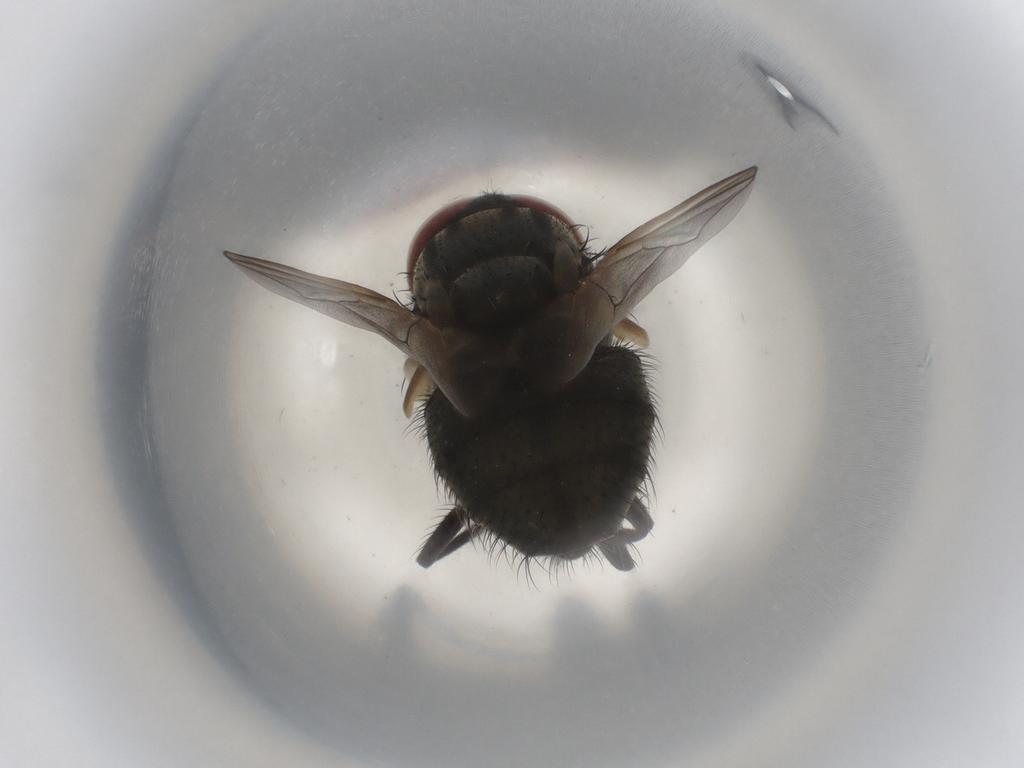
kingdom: Animalia
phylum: Arthropoda
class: Insecta
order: Diptera
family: Muscidae
